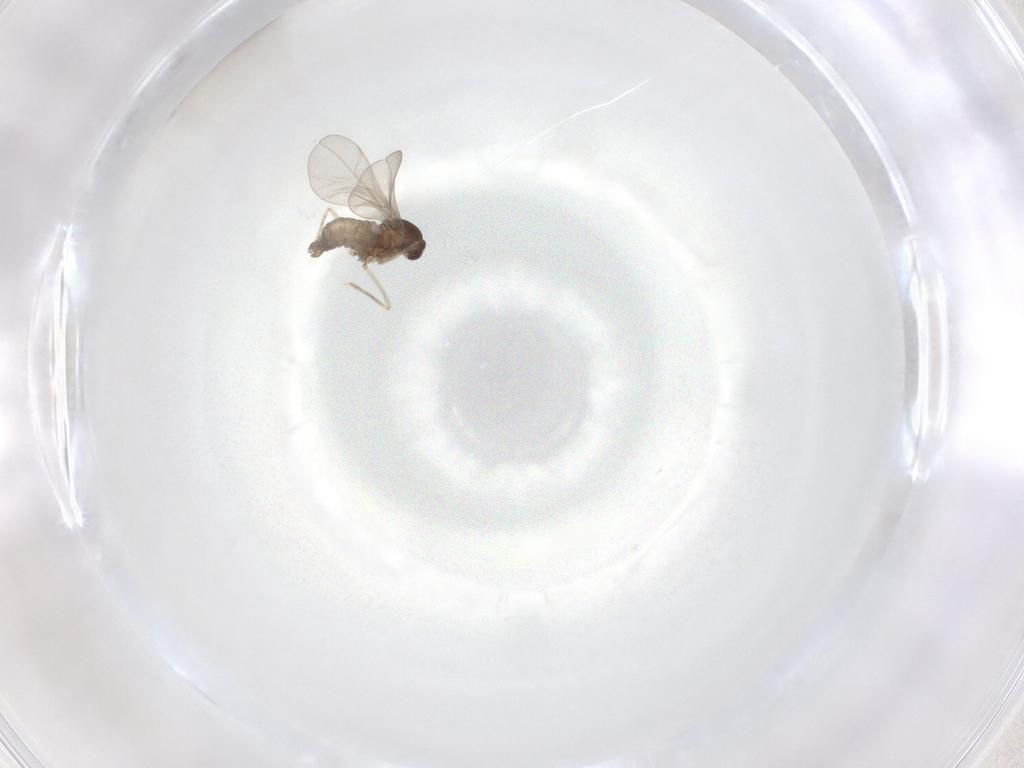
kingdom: Animalia
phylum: Arthropoda
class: Insecta
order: Diptera
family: Cecidomyiidae
